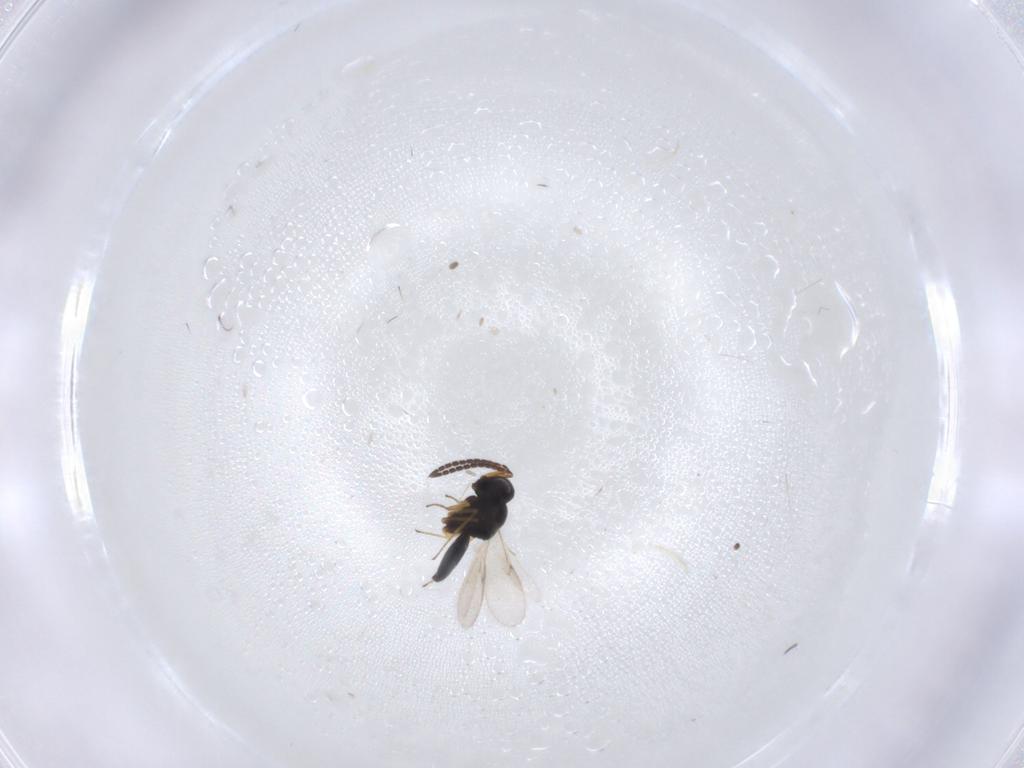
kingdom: Animalia
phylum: Arthropoda
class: Insecta
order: Hymenoptera
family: Scelionidae
